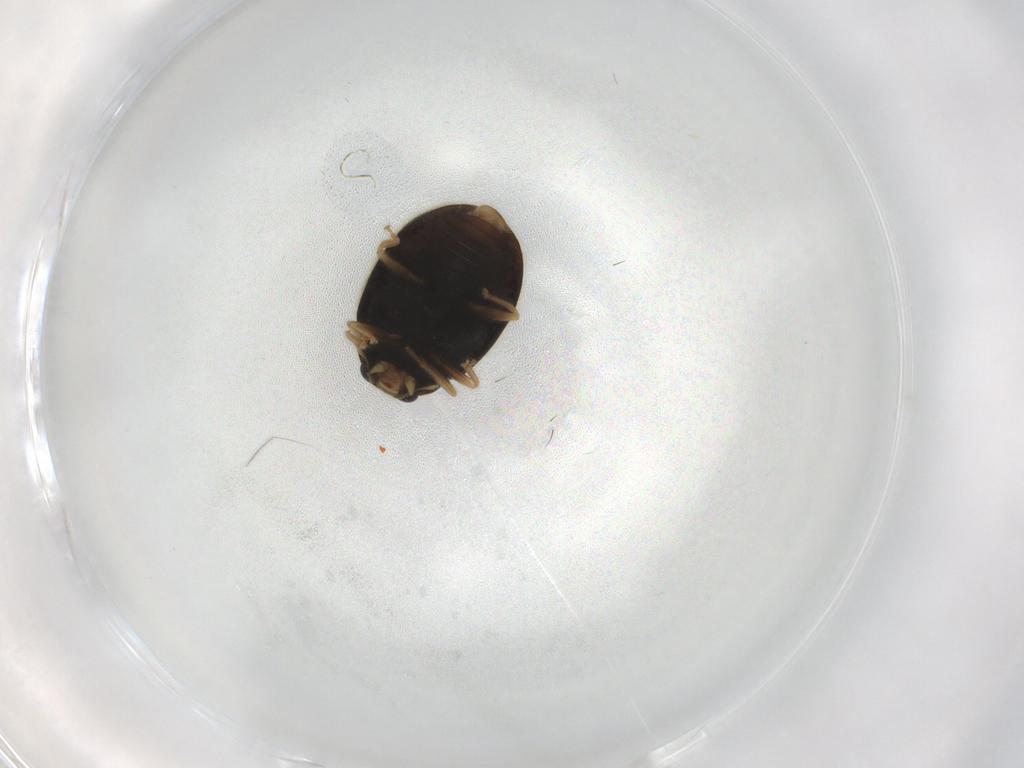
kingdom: Animalia
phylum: Arthropoda
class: Insecta
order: Coleoptera
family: Coccinellidae
